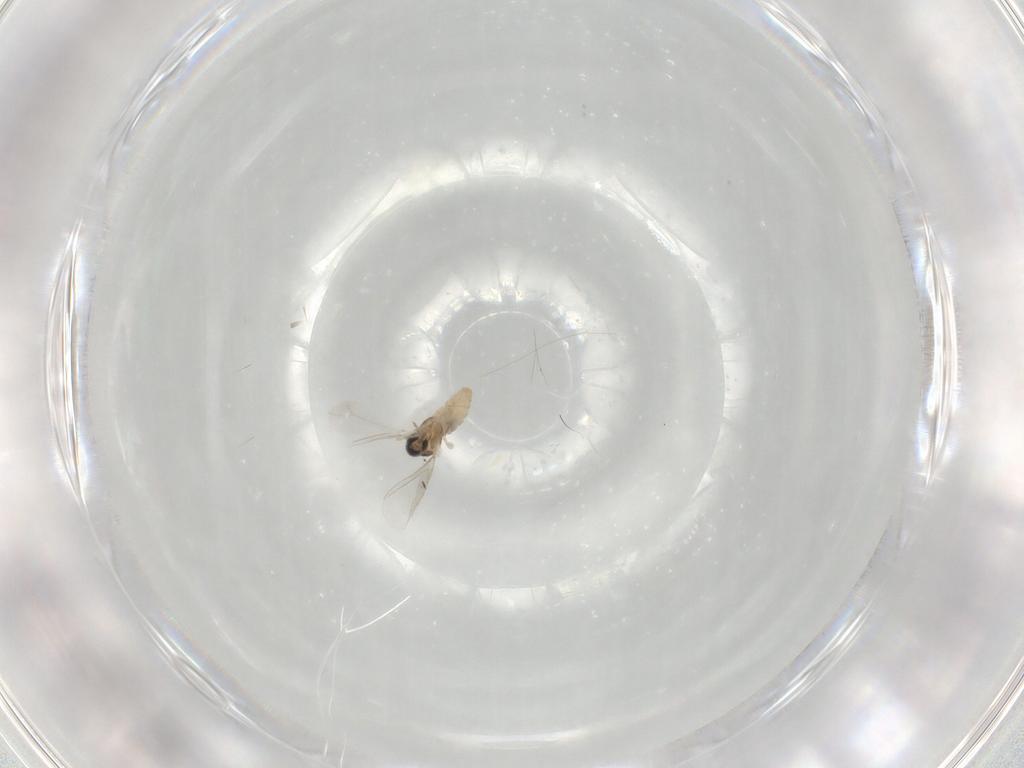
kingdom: Animalia
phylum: Arthropoda
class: Insecta
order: Diptera
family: Cecidomyiidae
